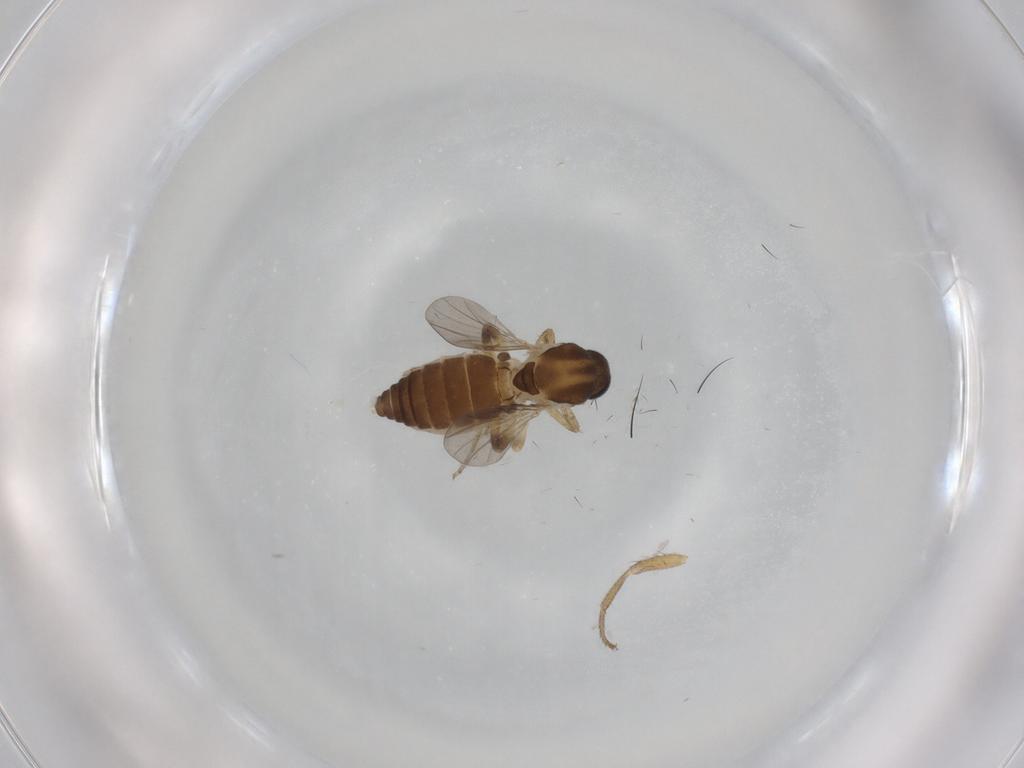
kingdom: Animalia
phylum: Arthropoda
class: Insecta
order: Diptera
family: Ceratopogonidae
